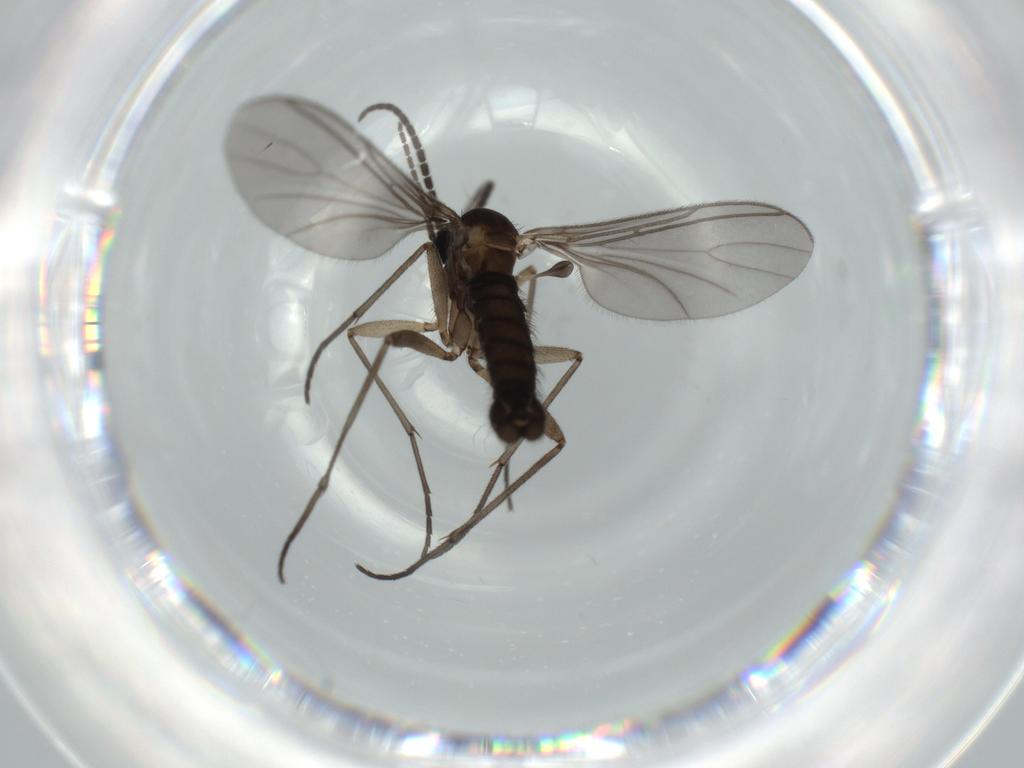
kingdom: Animalia
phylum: Arthropoda
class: Insecta
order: Diptera
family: Sciaridae
